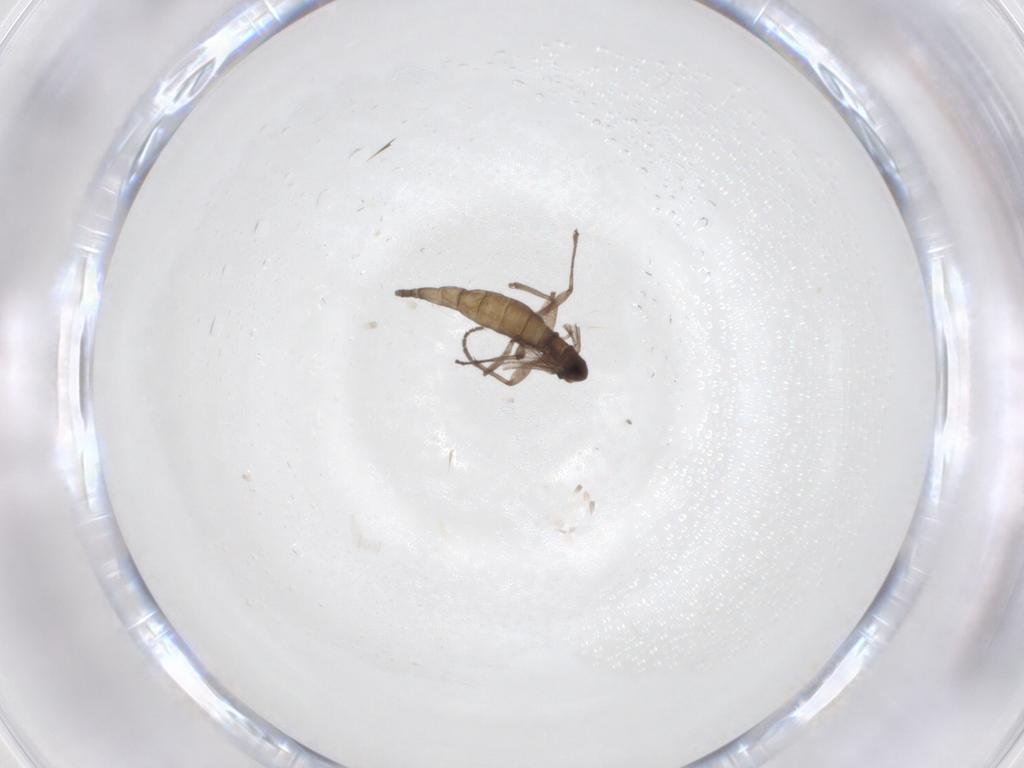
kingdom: Animalia
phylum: Arthropoda
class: Insecta
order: Diptera
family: Sciaridae
